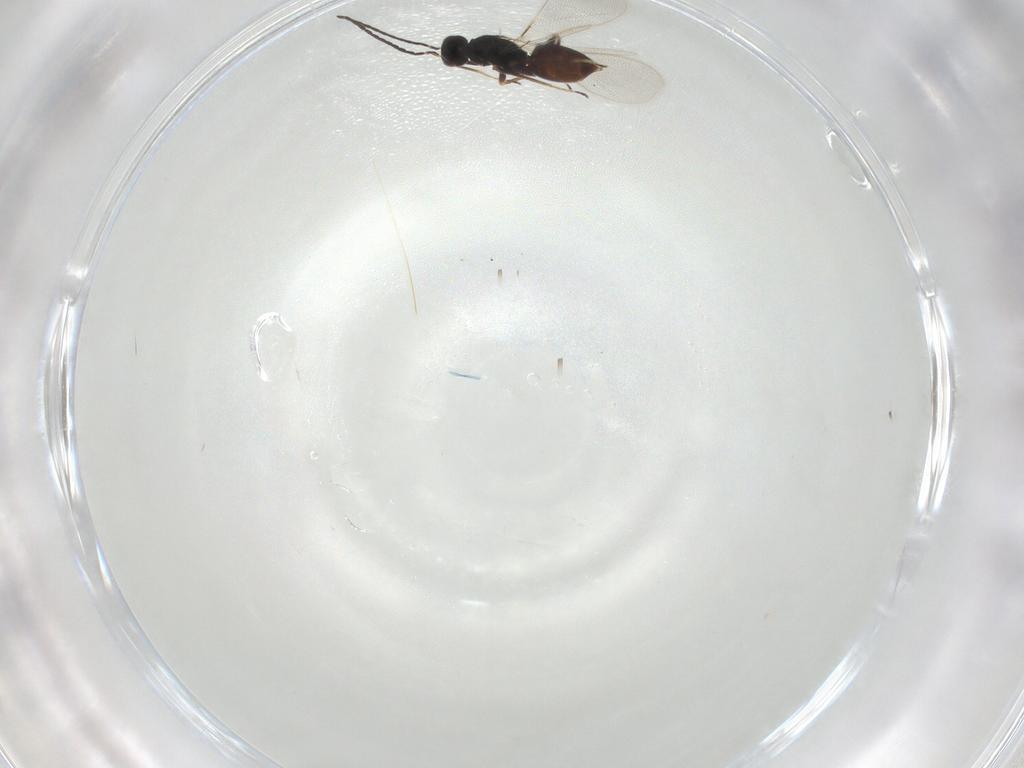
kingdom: Animalia
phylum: Arthropoda
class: Insecta
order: Hymenoptera
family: Mymaridae
